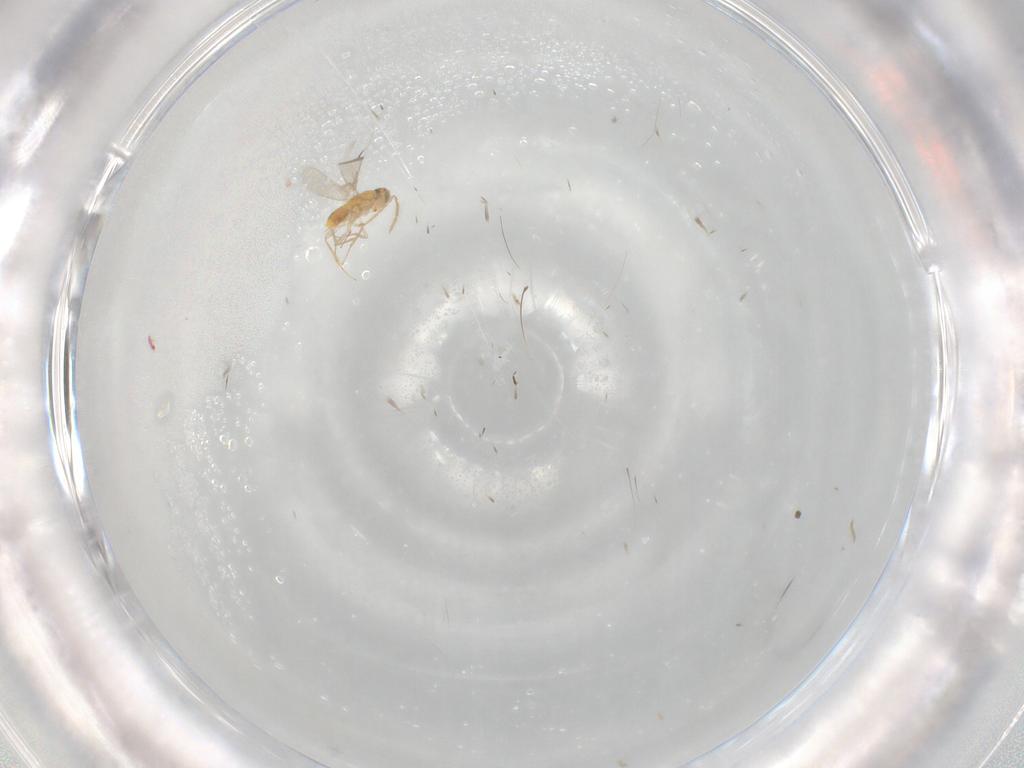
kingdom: Animalia
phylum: Arthropoda
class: Insecta
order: Hymenoptera
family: Aphelinidae
